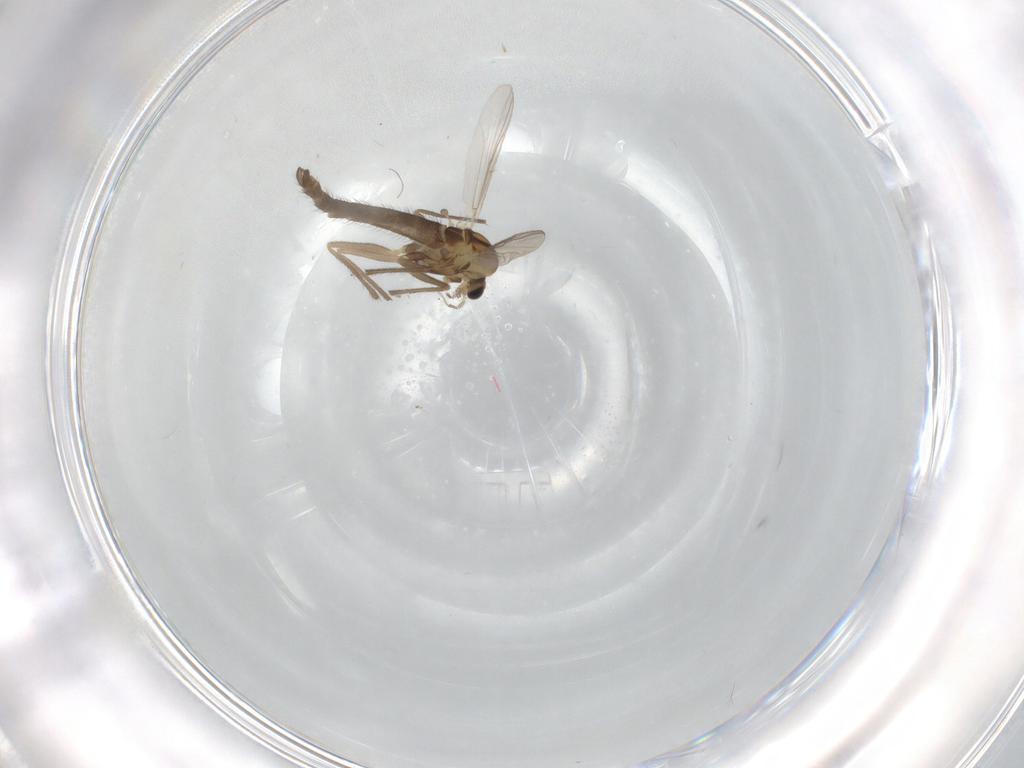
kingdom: Animalia
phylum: Arthropoda
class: Insecta
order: Diptera
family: Chironomidae
